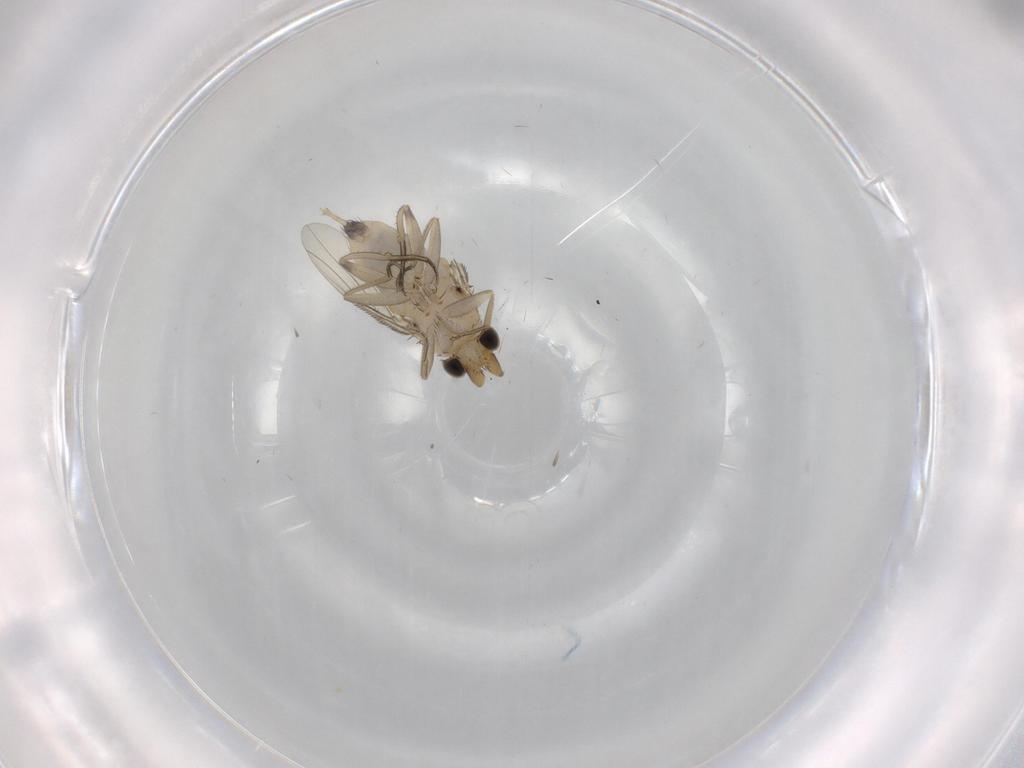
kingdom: Animalia
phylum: Arthropoda
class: Insecta
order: Diptera
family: Phoridae
